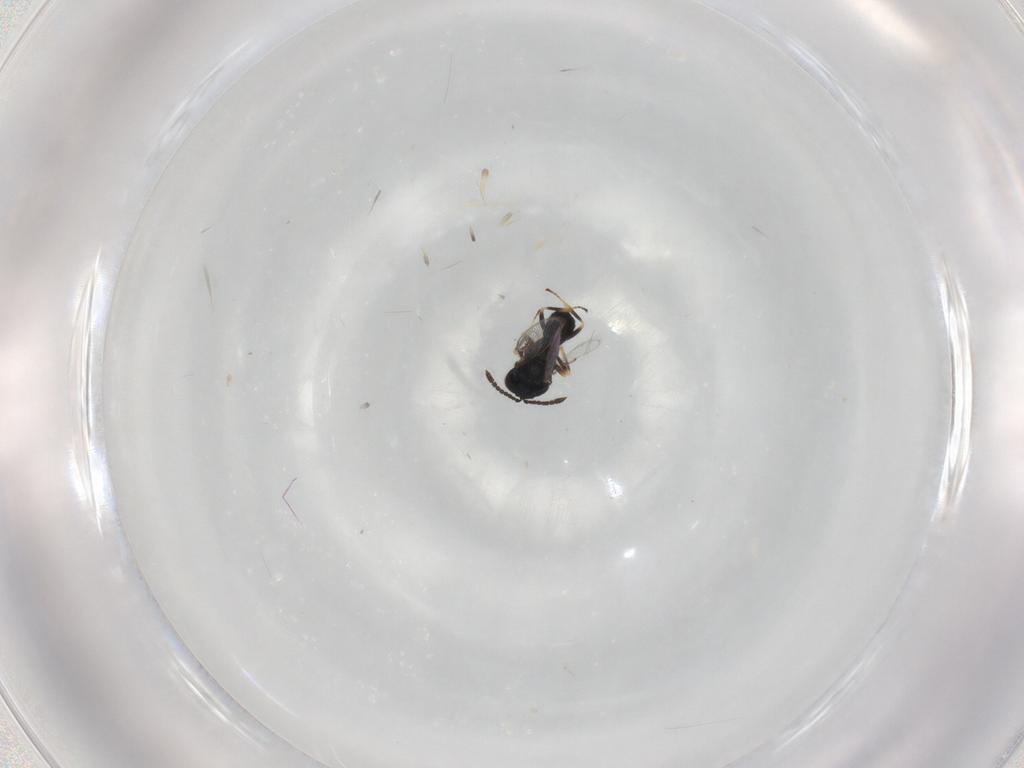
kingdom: Animalia
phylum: Arthropoda
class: Insecta
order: Hymenoptera
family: Pteromalidae
